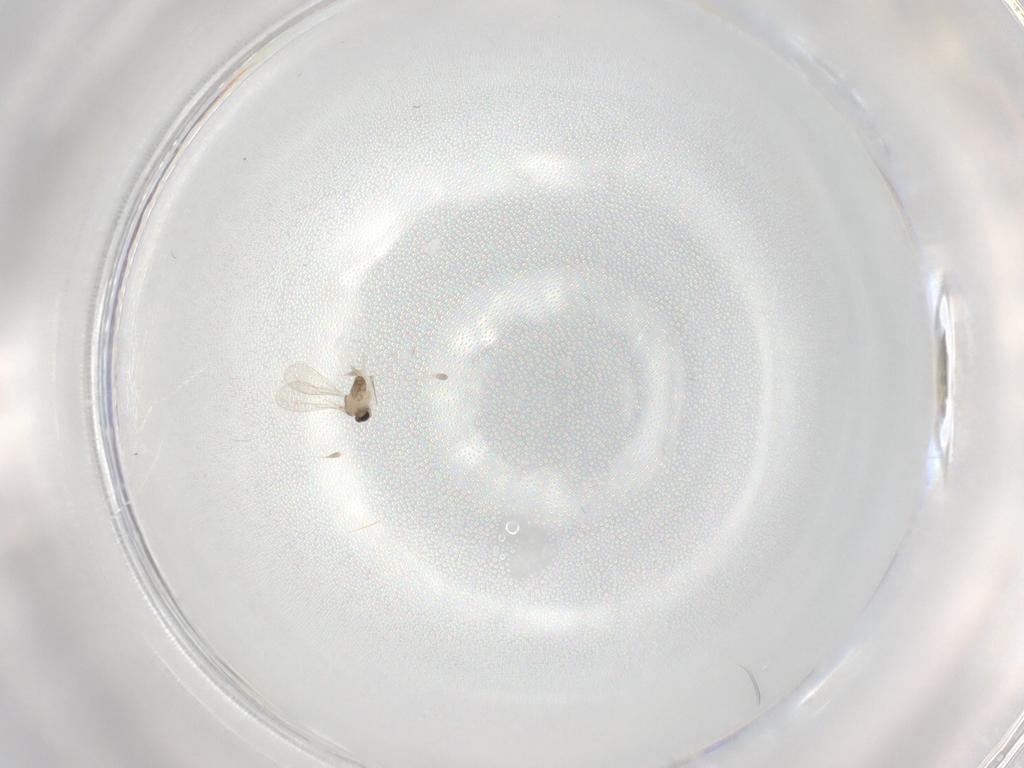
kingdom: Animalia
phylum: Arthropoda
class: Insecta
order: Diptera
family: Cecidomyiidae
